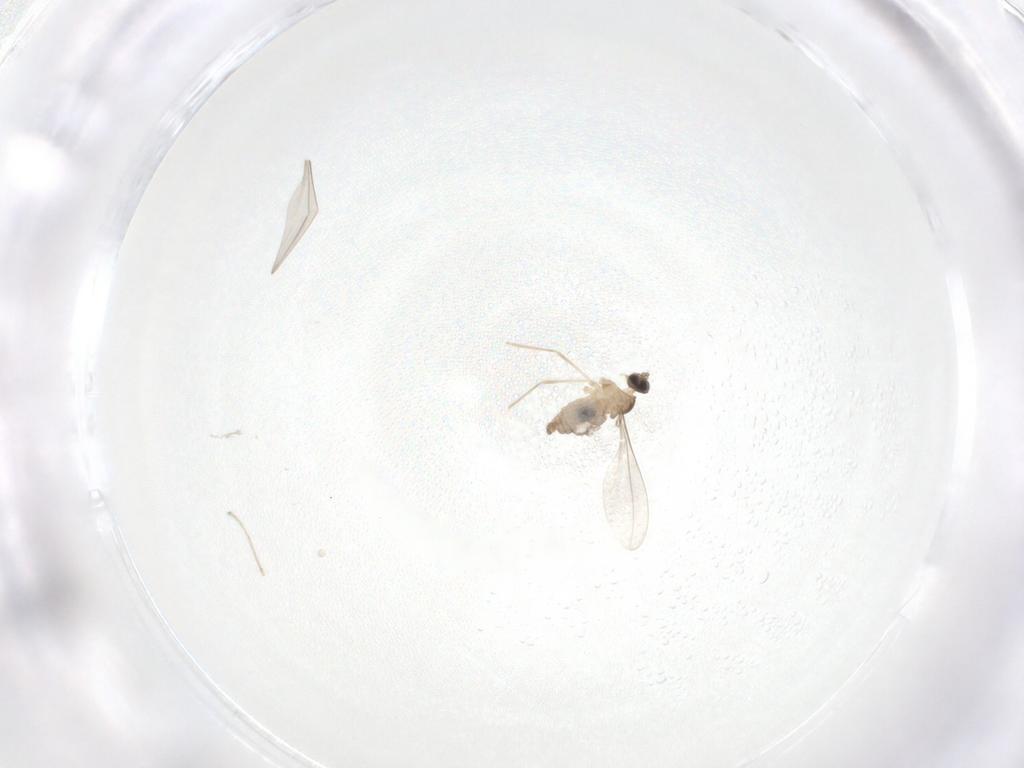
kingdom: Animalia
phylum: Arthropoda
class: Insecta
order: Diptera
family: Cecidomyiidae
